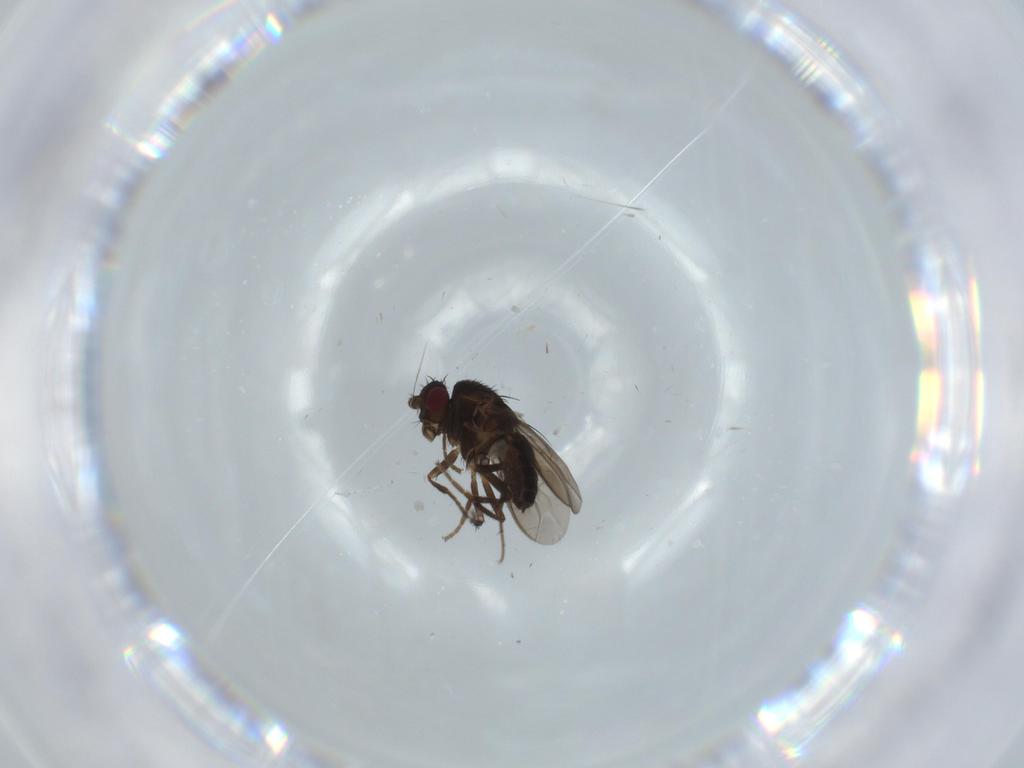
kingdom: Animalia
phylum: Arthropoda
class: Insecta
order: Diptera
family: Sphaeroceridae
